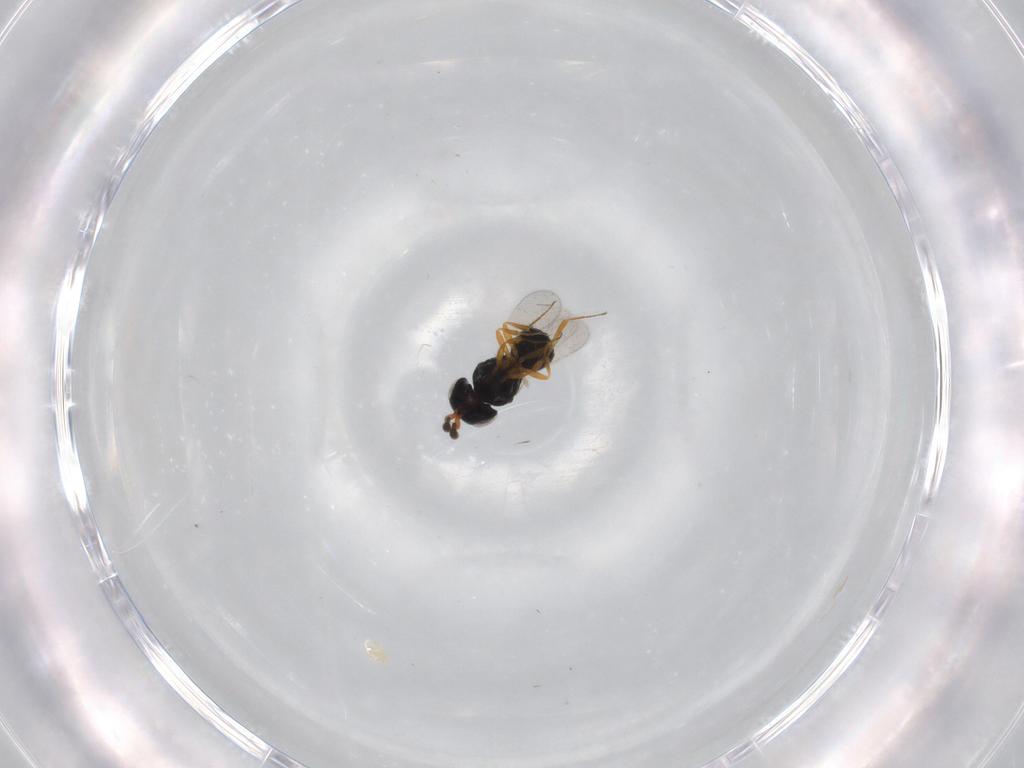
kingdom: Animalia
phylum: Arthropoda
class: Insecta
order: Hymenoptera
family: Scelionidae
